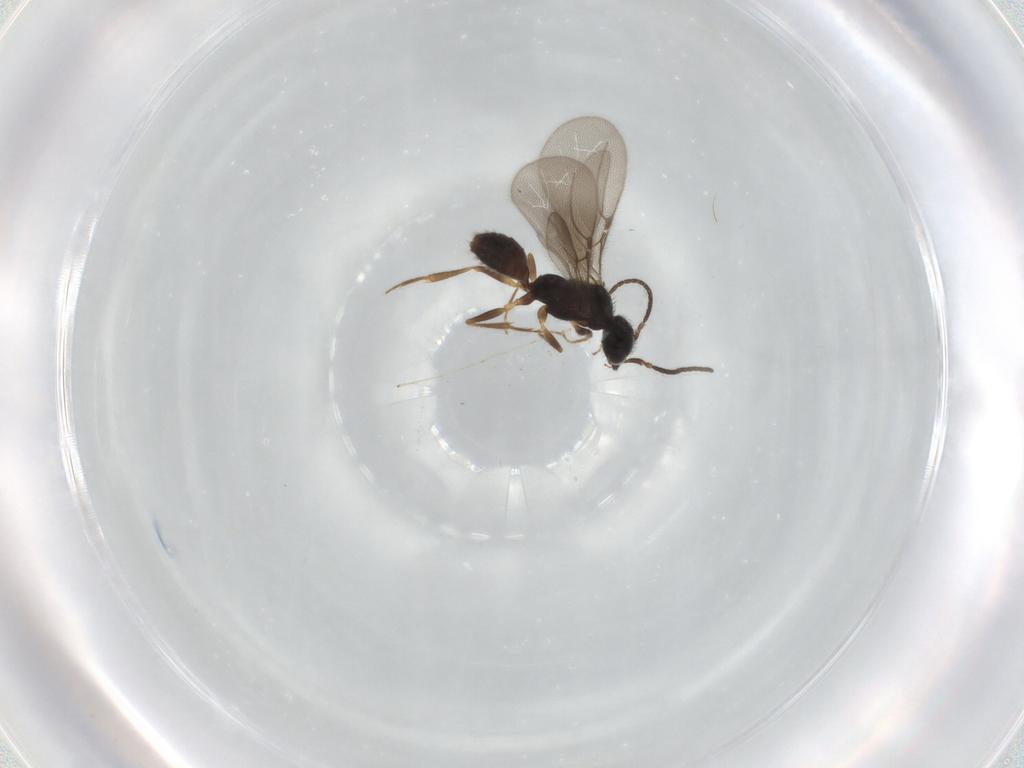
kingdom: Animalia
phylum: Arthropoda
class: Insecta
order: Hymenoptera
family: Bethylidae
